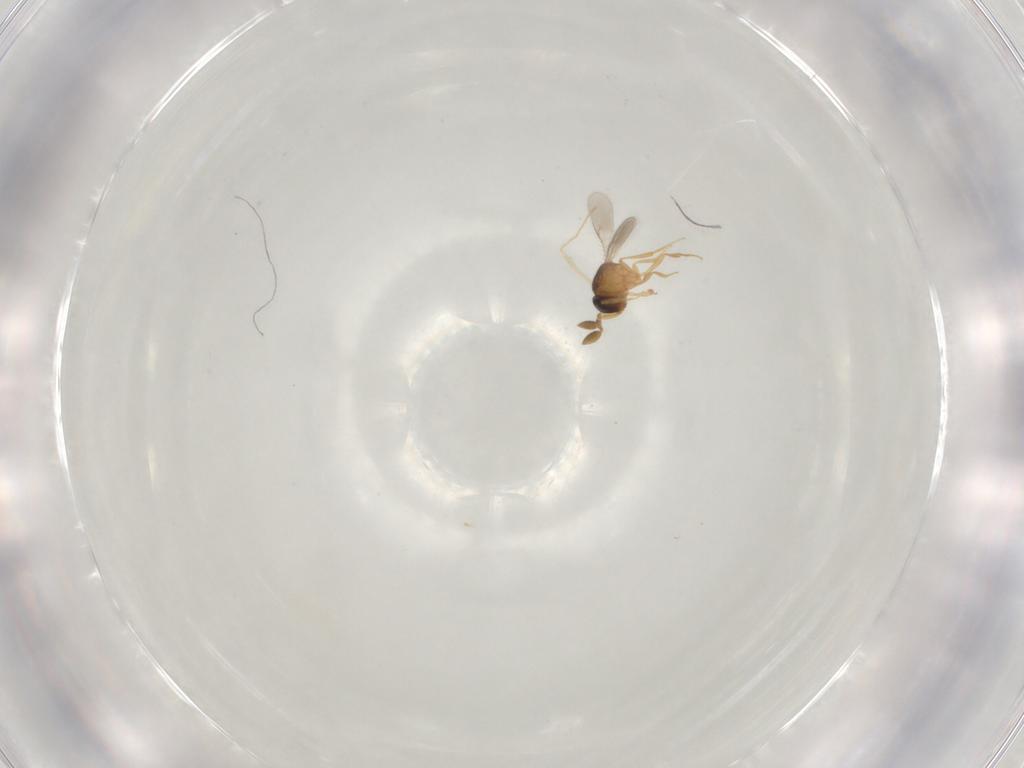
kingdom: Animalia
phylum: Arthropoda
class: Insecta
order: Hymenoptera
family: Scelionidae
